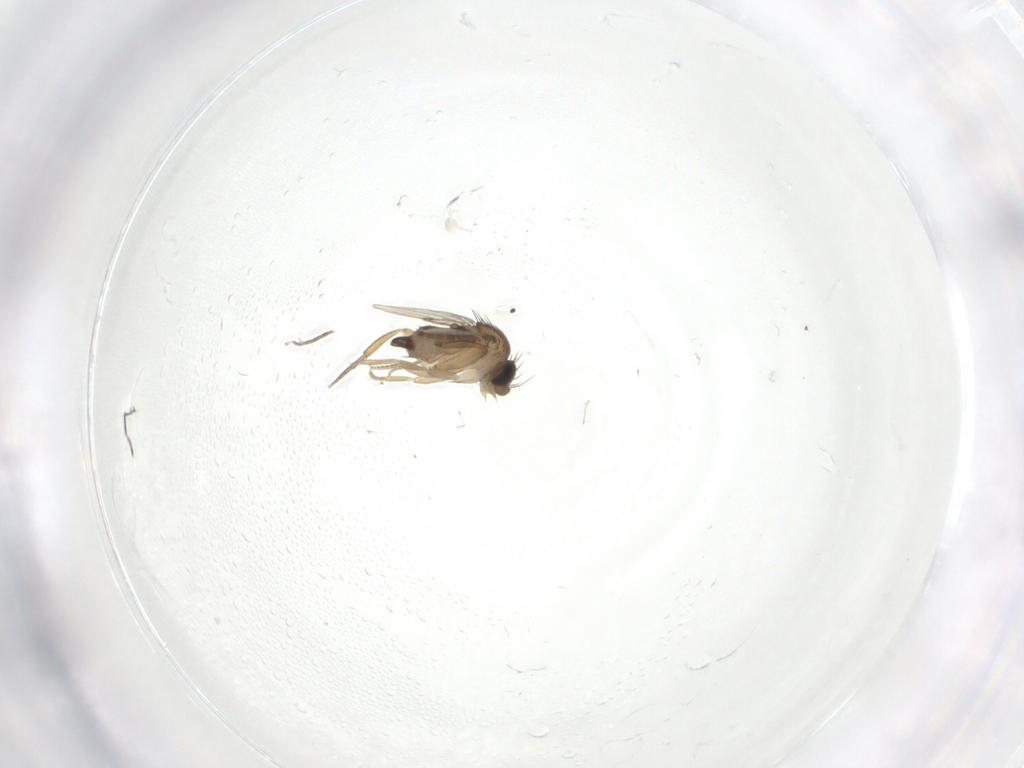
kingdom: Animalia
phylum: Arthropoda
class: Insecta
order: Diptera
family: Psychodidae
